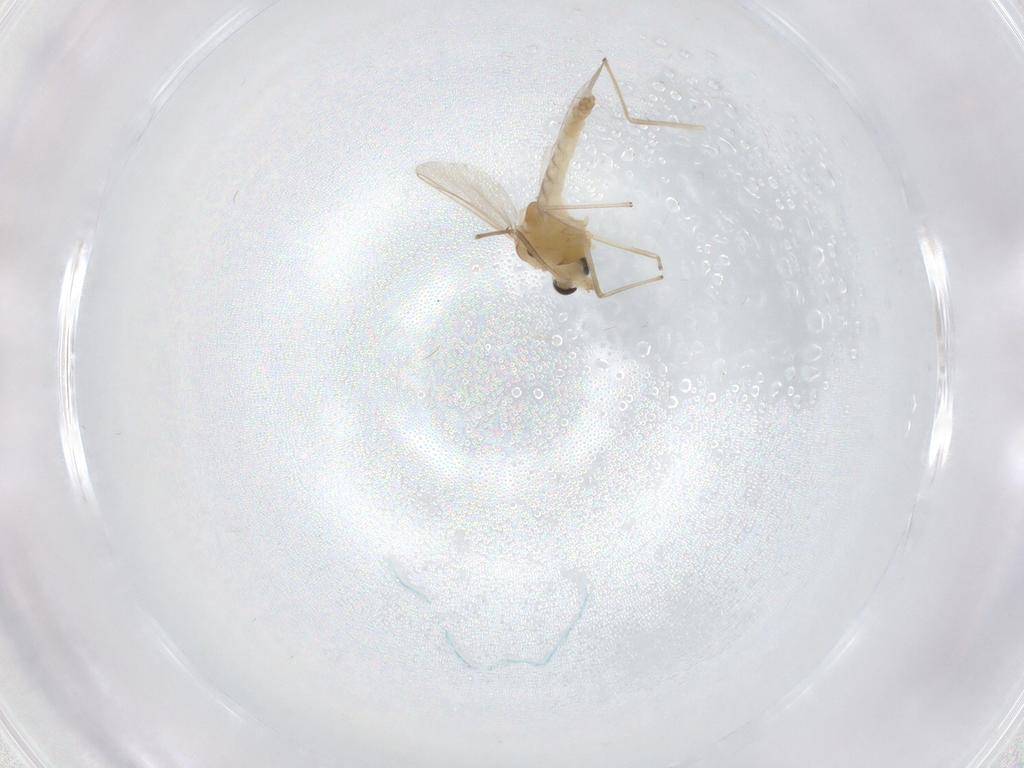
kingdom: Animalia
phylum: Arthropoda
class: Insecta
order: Diptera
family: Chironomidae
